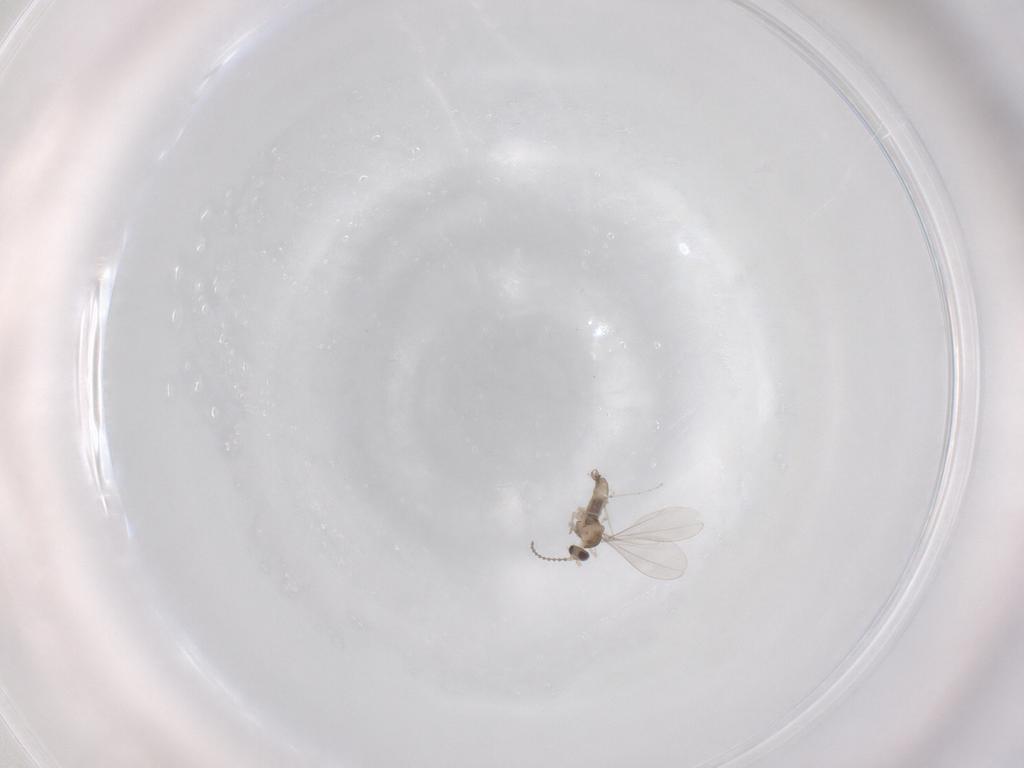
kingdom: Animalia
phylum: Arthropoda
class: Insecta
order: Diptera
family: Cecidomyiidae
